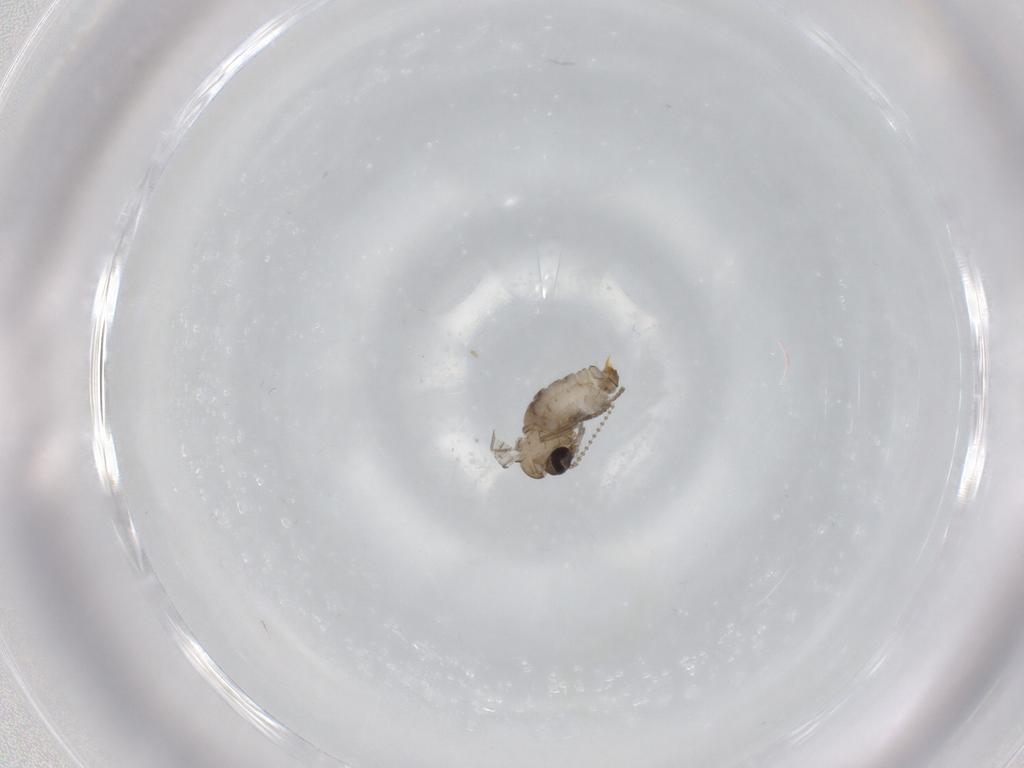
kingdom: Animalia
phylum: Arthropoda
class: Insecta
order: Diptera
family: Psychodidae
